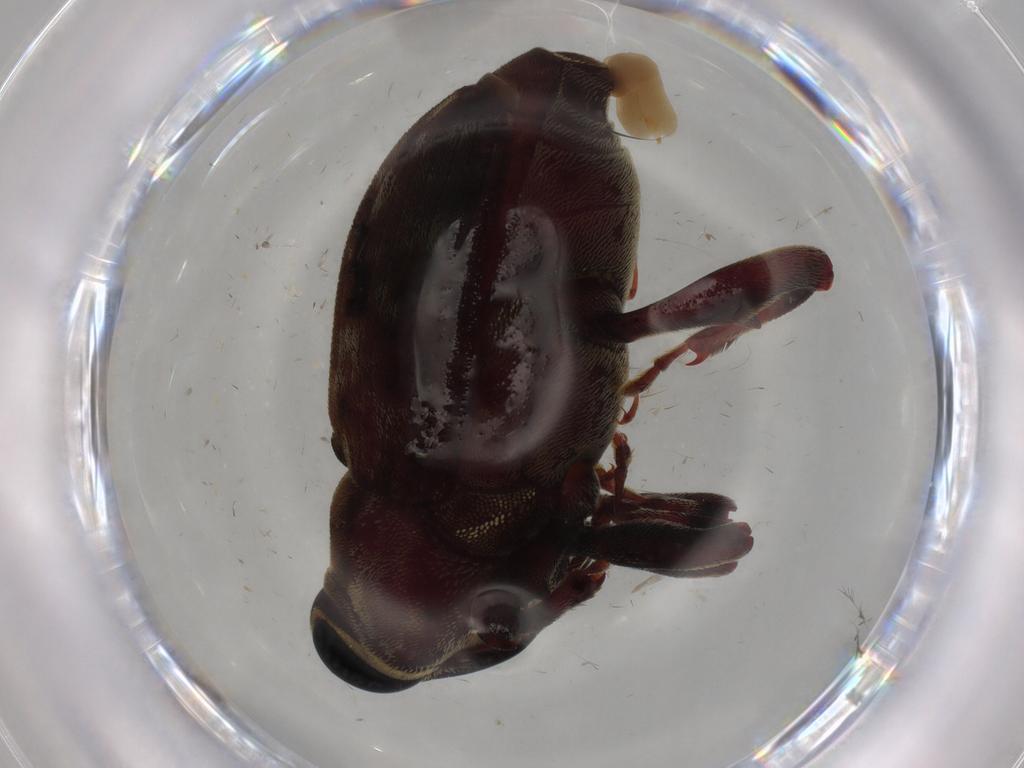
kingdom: Animalia
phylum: Arthropoda
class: Insecta
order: Coleoptera
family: Curculionidae
